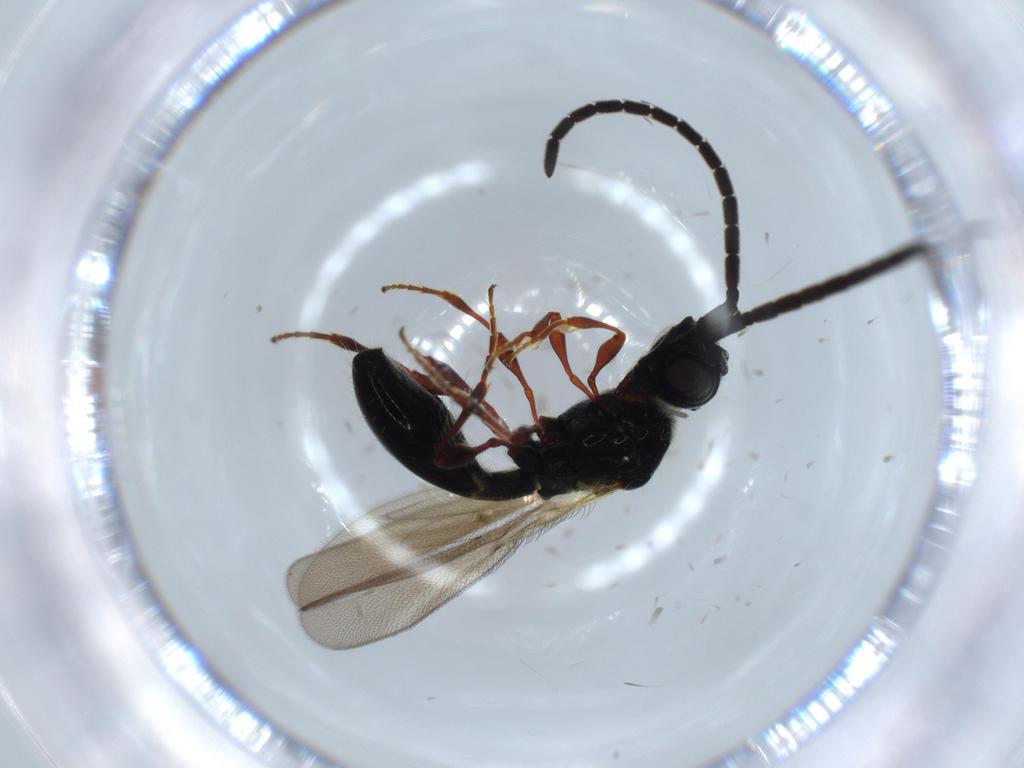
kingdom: Animalia
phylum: Arthropoda
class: Insecta
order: Hymenoptera
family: Diapriidae
